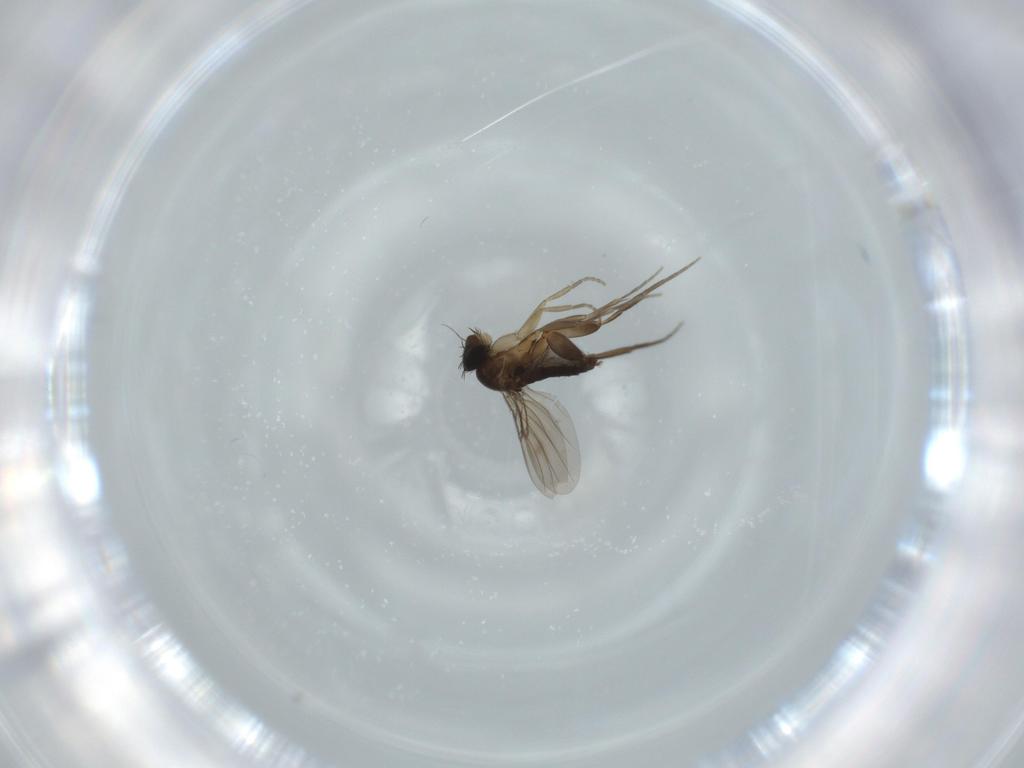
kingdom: Animalia
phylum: Arthropoda
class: Insecta
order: Diptera
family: Phoridae
